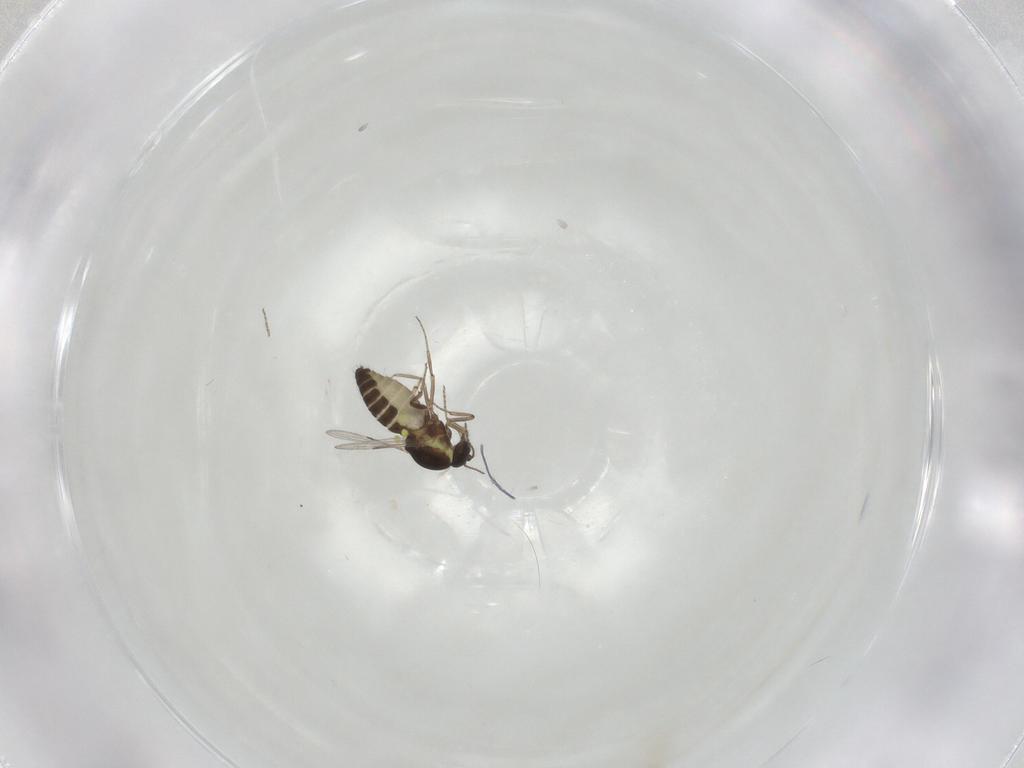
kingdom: Animalia
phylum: Arthropoda
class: Insecta
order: Diptera
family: Ceratopogonidae
